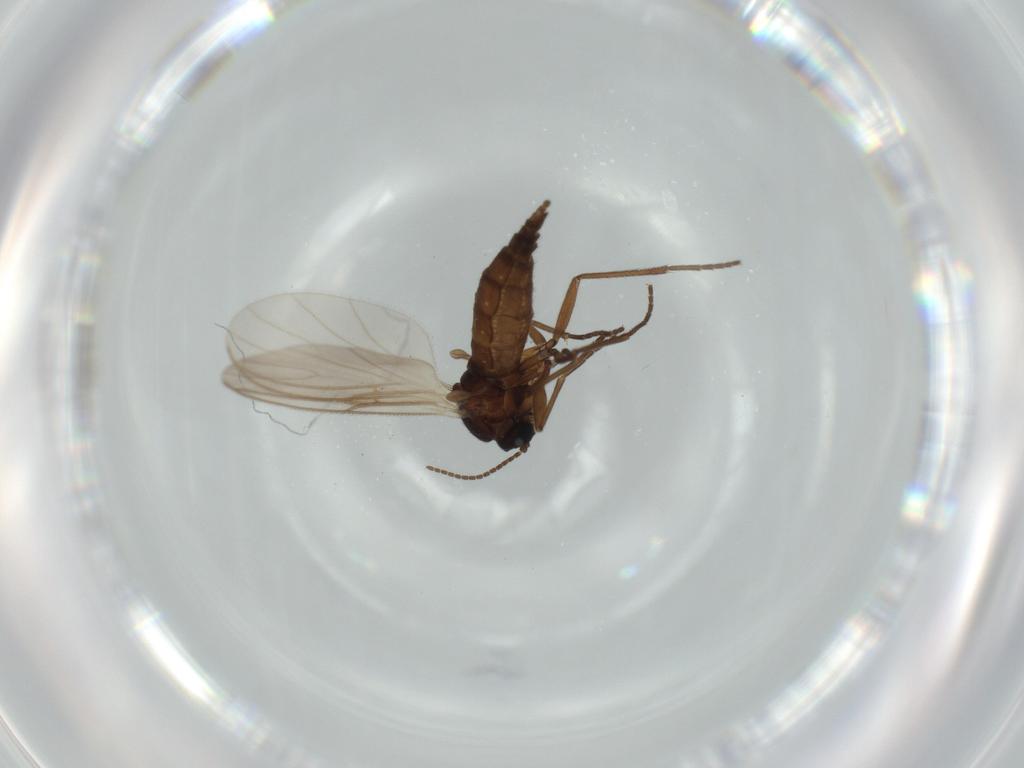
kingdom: Animalia
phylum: Arthropoda
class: Insecta
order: Diptera
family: Sciaridae
